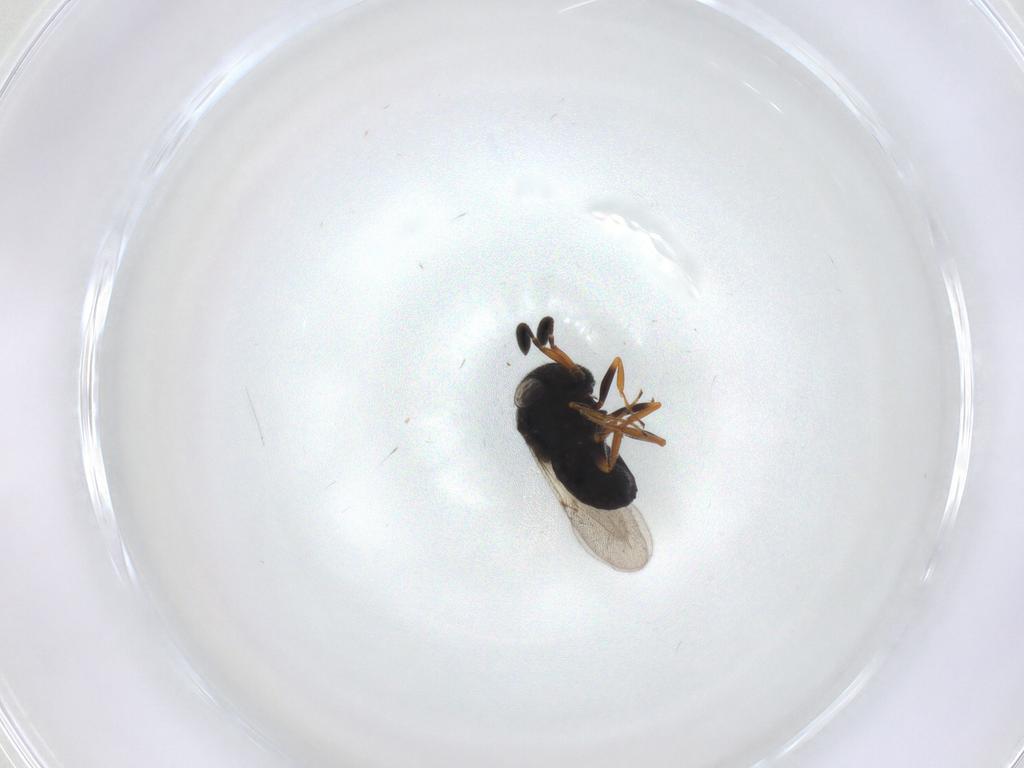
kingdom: Animalia
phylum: Arthropoda
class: Insecta
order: Hymenoptera
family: Scelionidae
